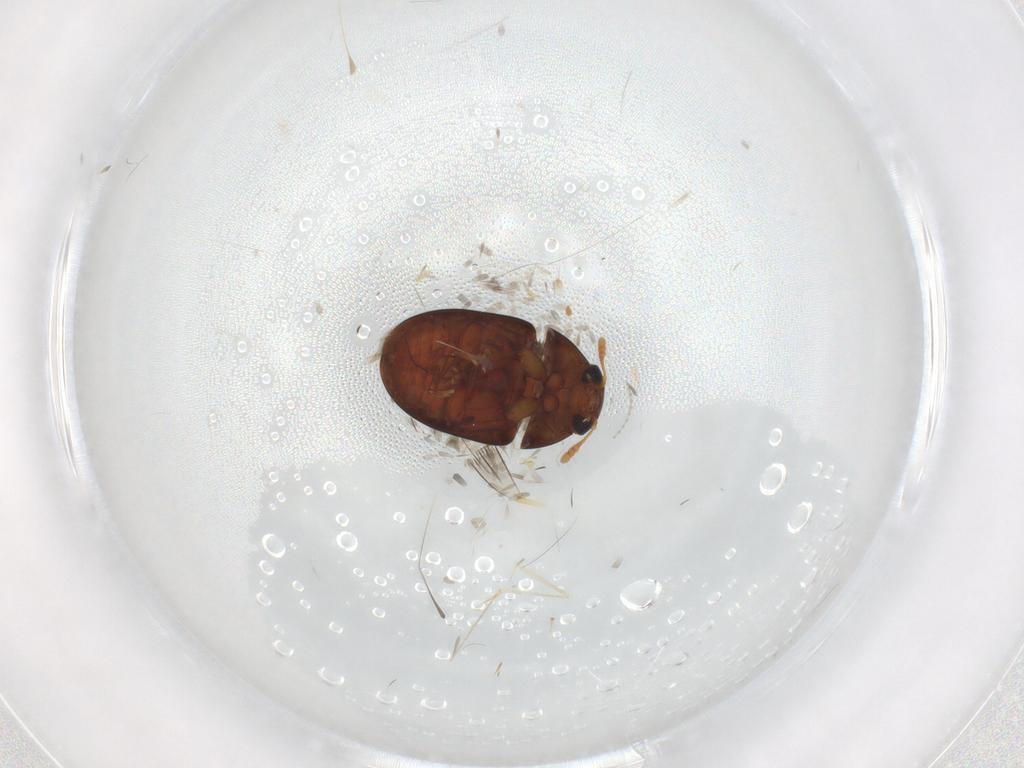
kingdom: Animalia
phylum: Arthropoda
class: Insecta
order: Coleoptera
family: Phalacridae
